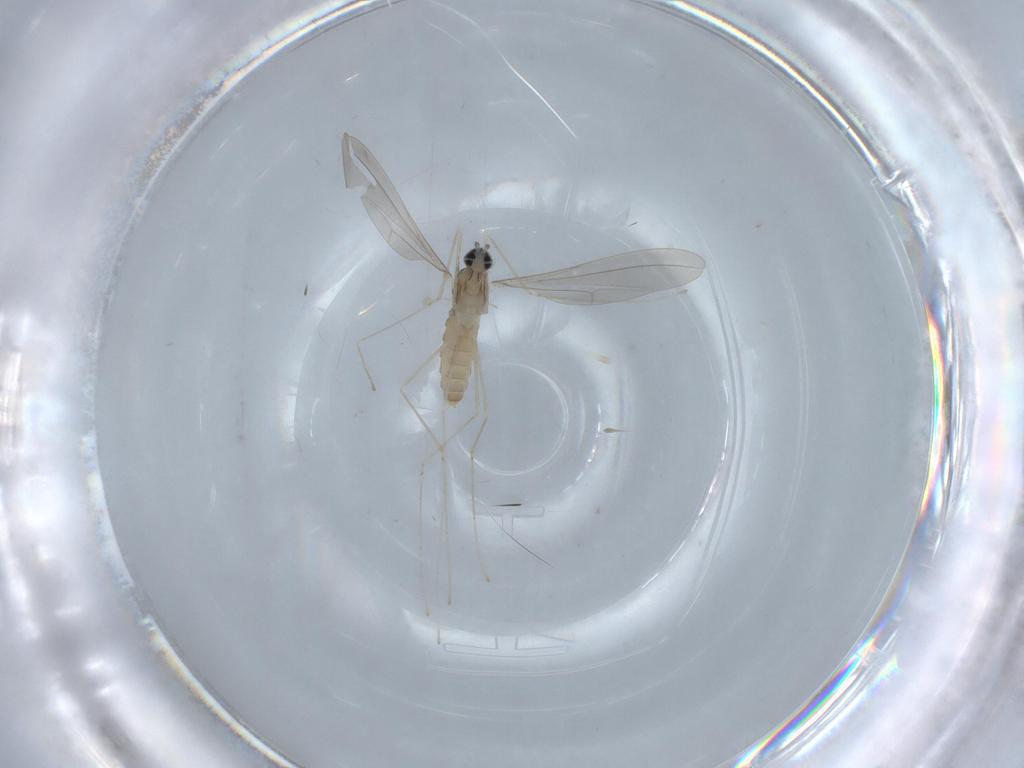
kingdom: Animalia
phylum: Arthropoda
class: Insecta
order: Diptera
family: Cecidomyiidae
